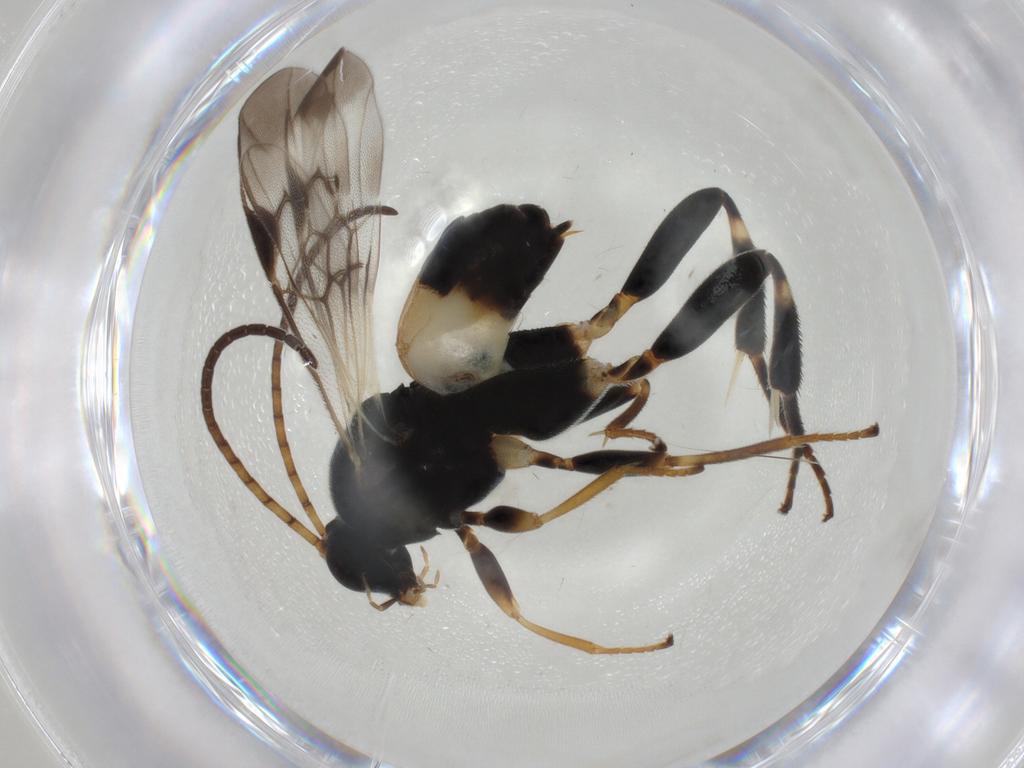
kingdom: Animalia
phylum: Arthropoda
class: Insecta
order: Hymenoptera
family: Braconidae
